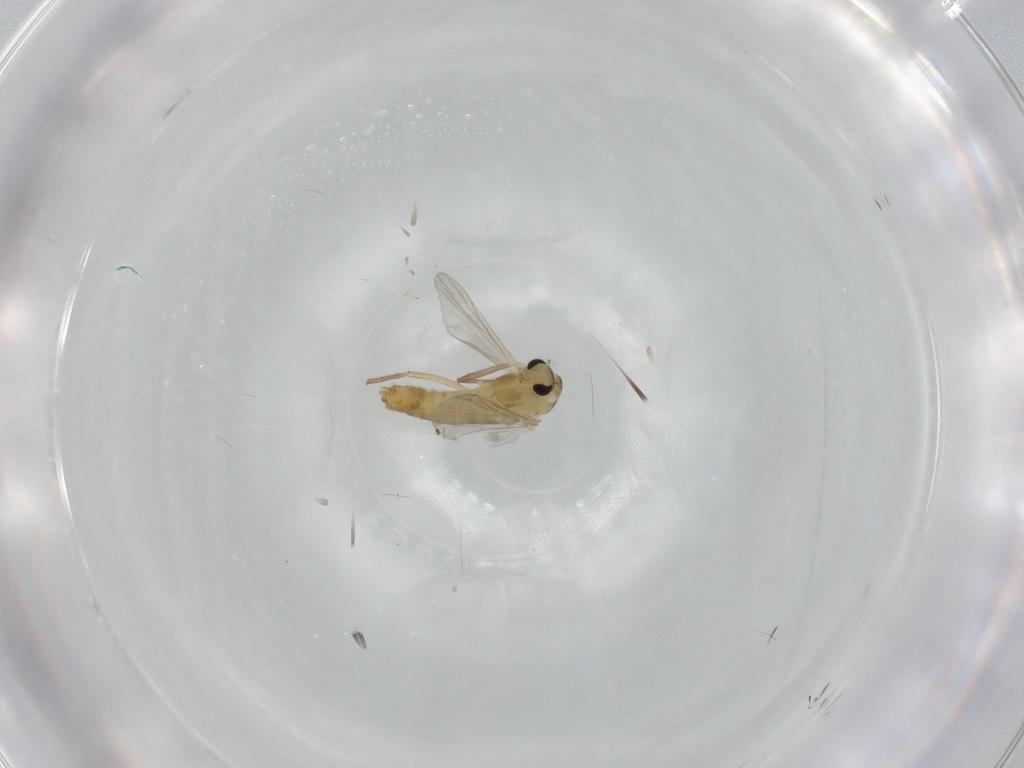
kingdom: Animalia
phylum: Arthropoda
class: Insecta
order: Diptera
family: Chironomidae
